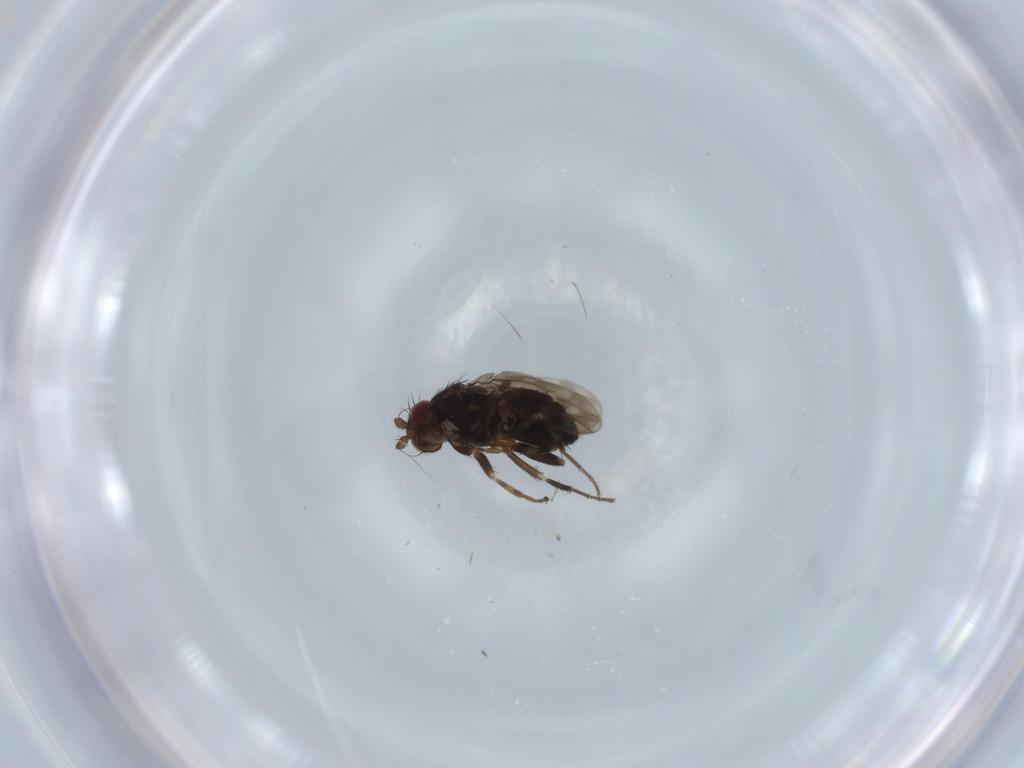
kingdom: Animalia
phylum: Arthropoda
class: Insecta
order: Diptera
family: Sphaeroceridae
